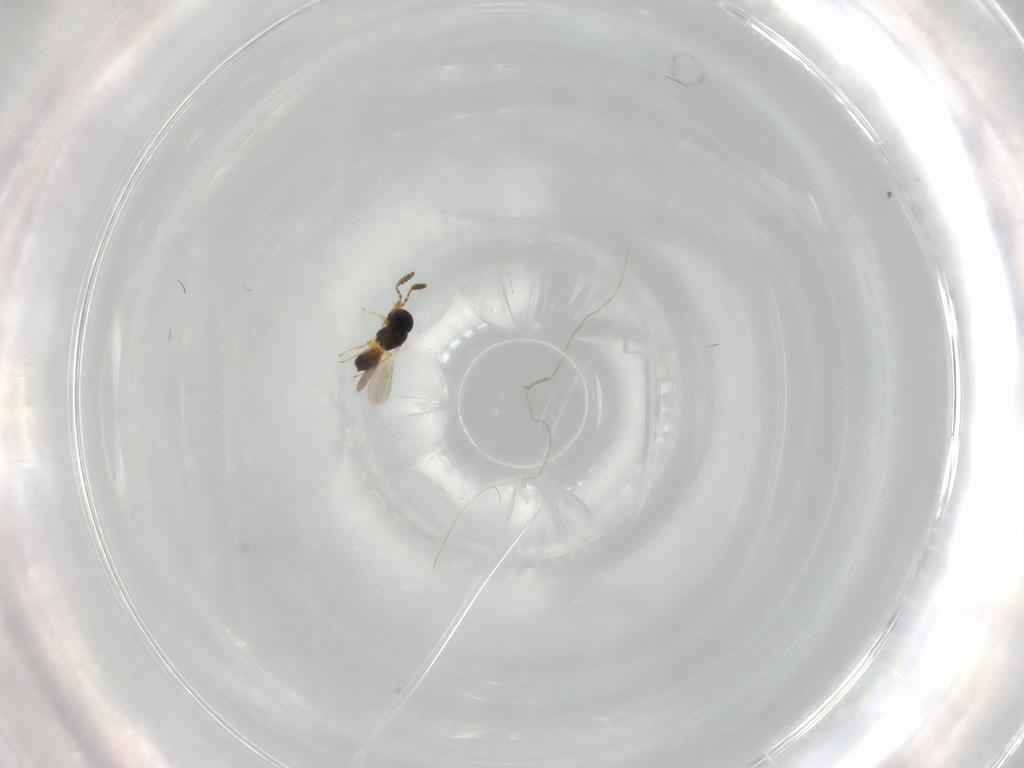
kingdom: Animalia
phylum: Arthropoda
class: Insecta
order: Hymenoptera
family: Scelionidae
